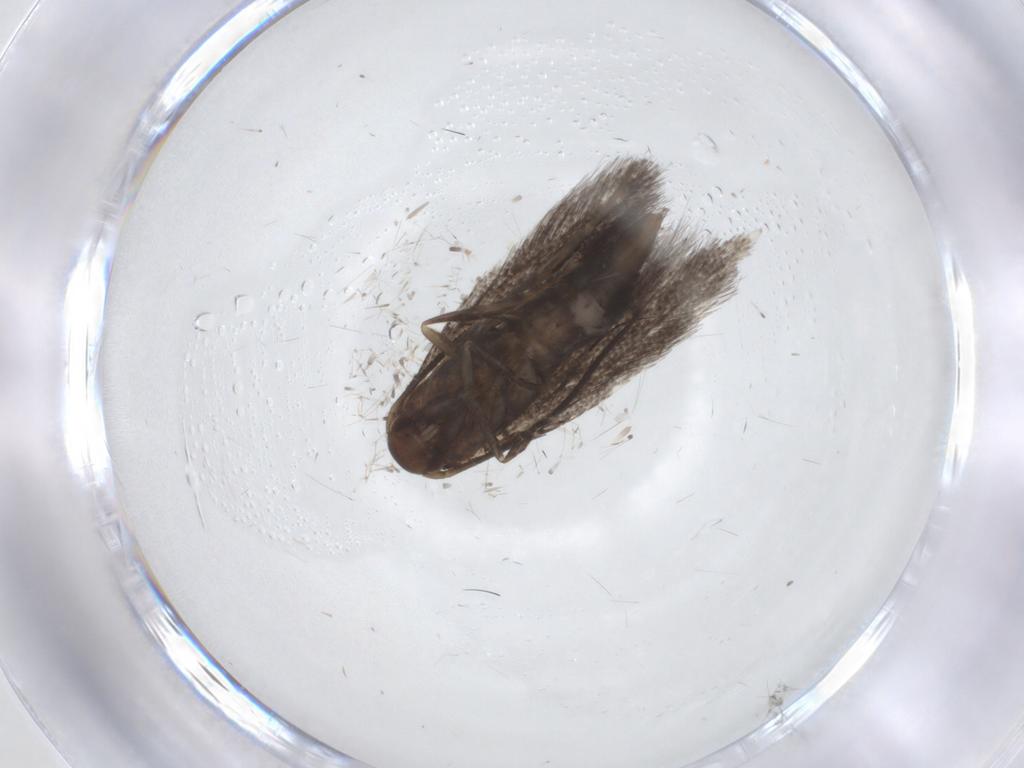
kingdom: Animalia
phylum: Arthropoda
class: Insecta
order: Lepidoptera
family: Elachistidae
